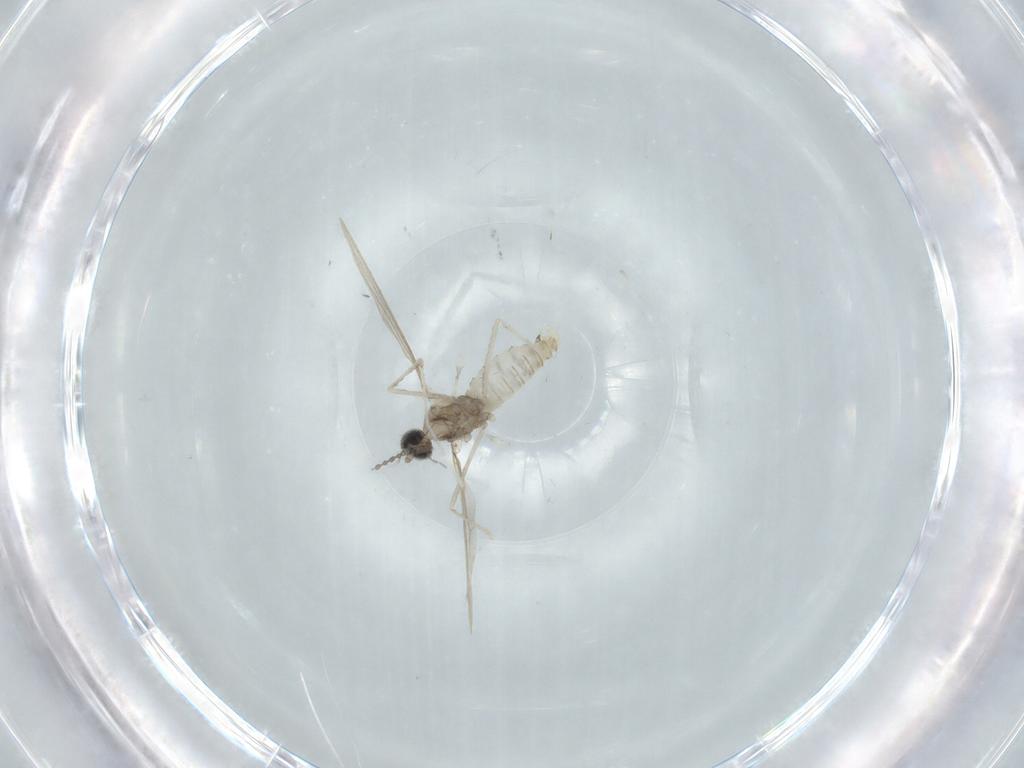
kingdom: Animalia
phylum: Arthropoda
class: Insecta
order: Diptera
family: Cecidomyiidae
